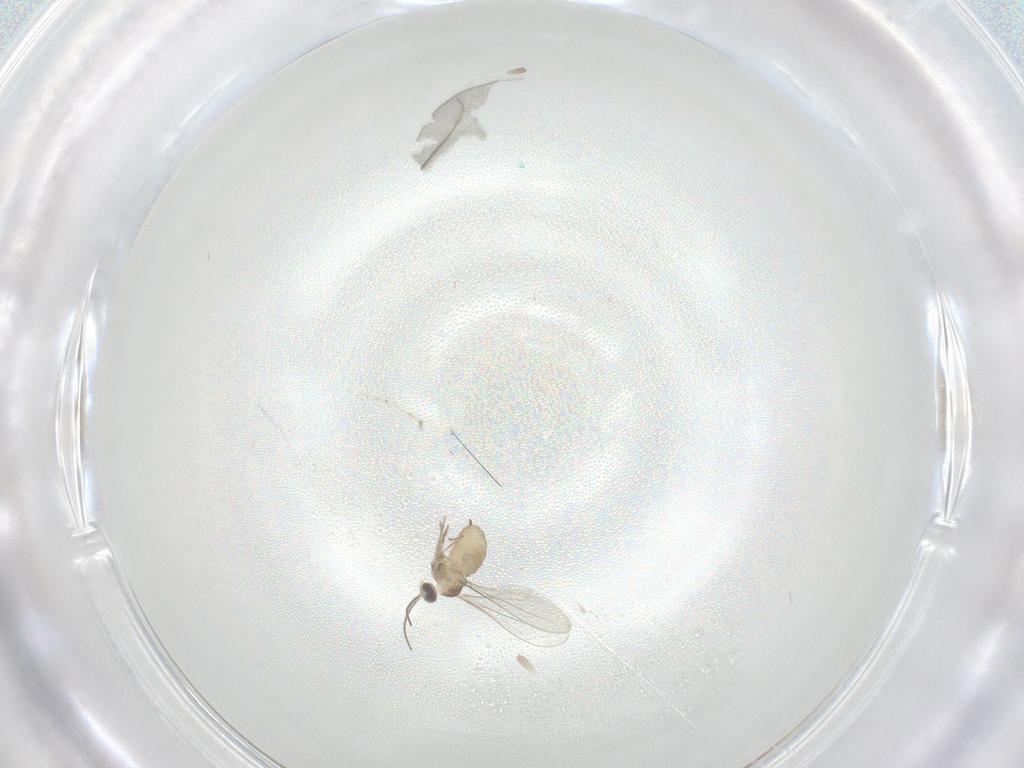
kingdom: Animalia
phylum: Arthropoda
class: Insecta
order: Diptera
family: Cecidomyiidae
